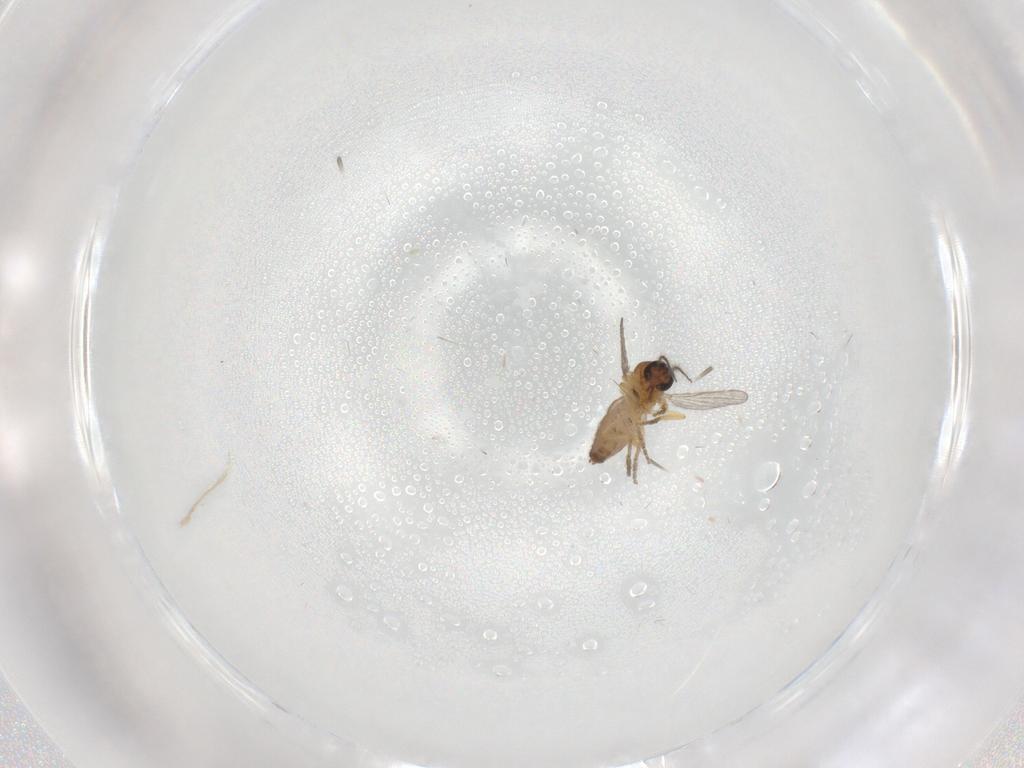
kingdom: Animalia
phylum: Arthropoda
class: Insecta
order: Diptera
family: Ceratopogonidae
